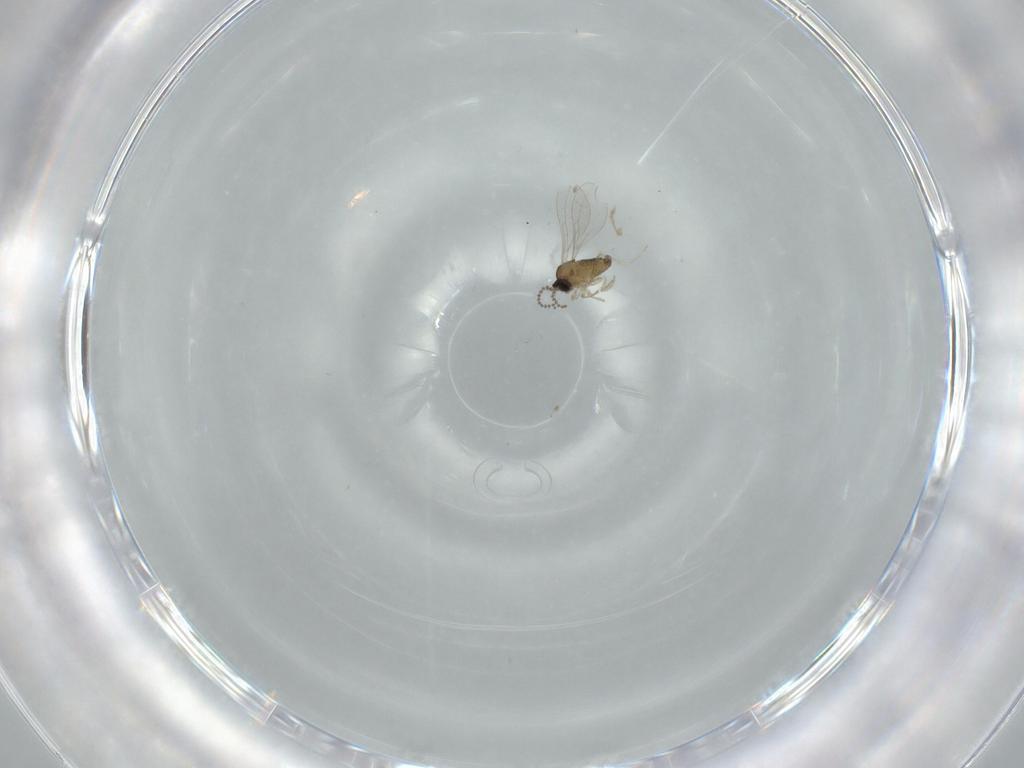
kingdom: Animalia
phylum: Arthropoda
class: Insecta
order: Diptera
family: Cecidomyiidae
